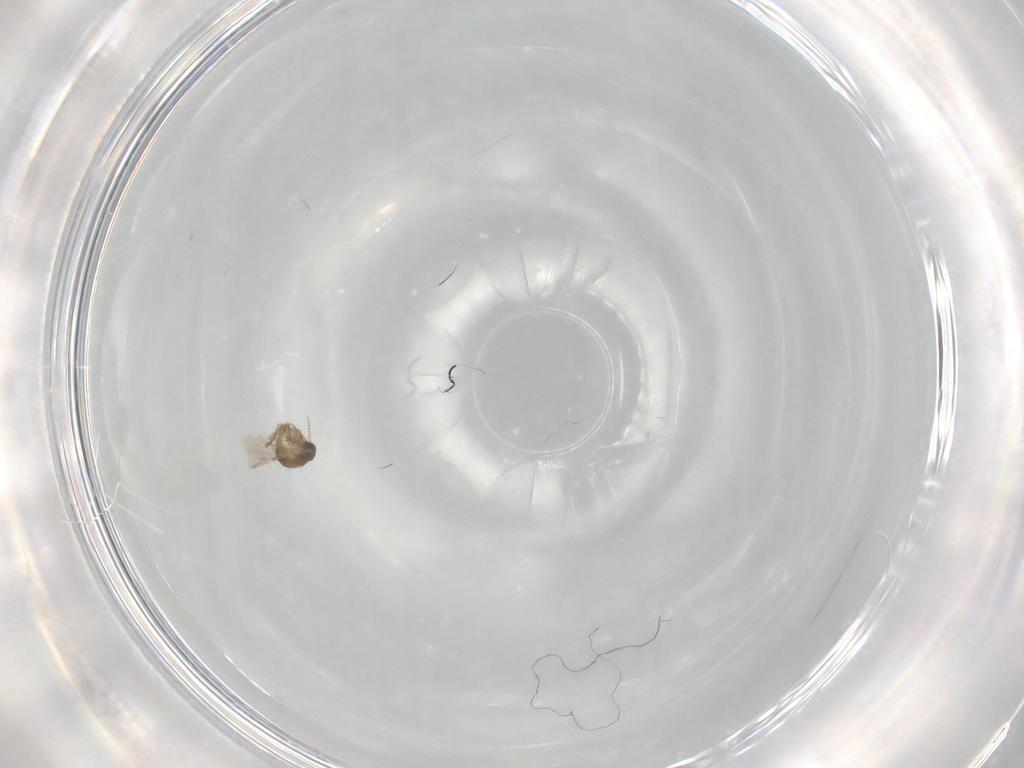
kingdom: Animalia
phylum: Arthropoda
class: Insecta
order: Diptera
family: Ceratopogonidae
